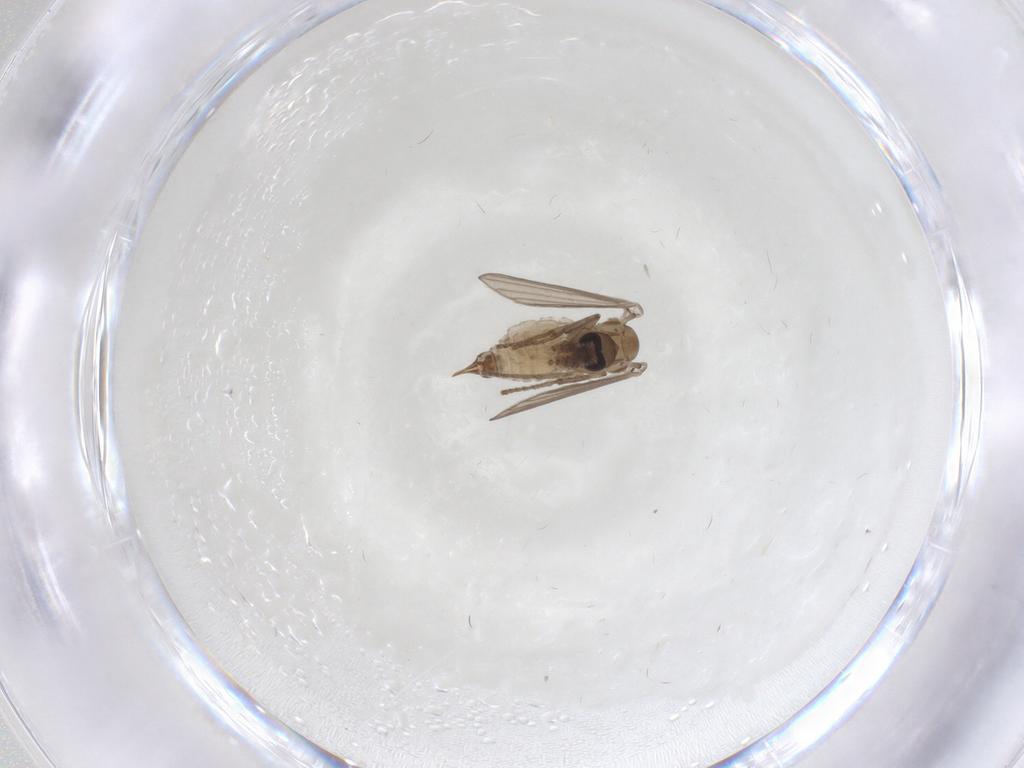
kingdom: Animalia
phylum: Arthropoda
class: Insecta
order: Diptera
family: Psychodidae
